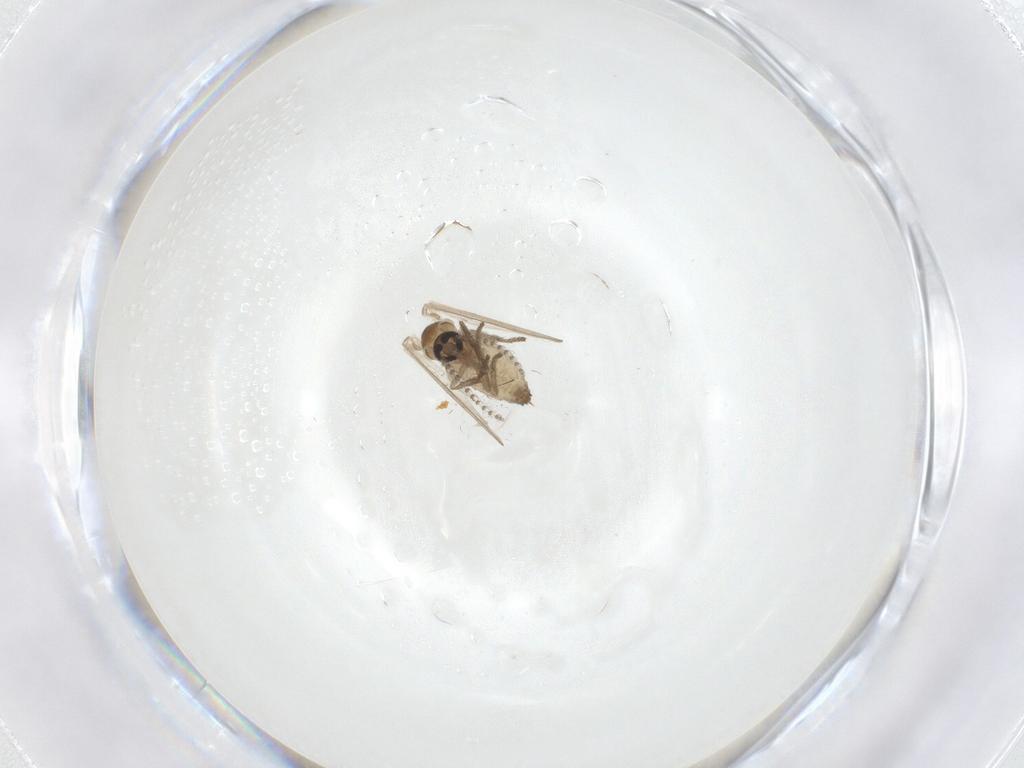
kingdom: Animalia
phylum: Arthropoda
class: Insecta
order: Diptera
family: Psychodidae
